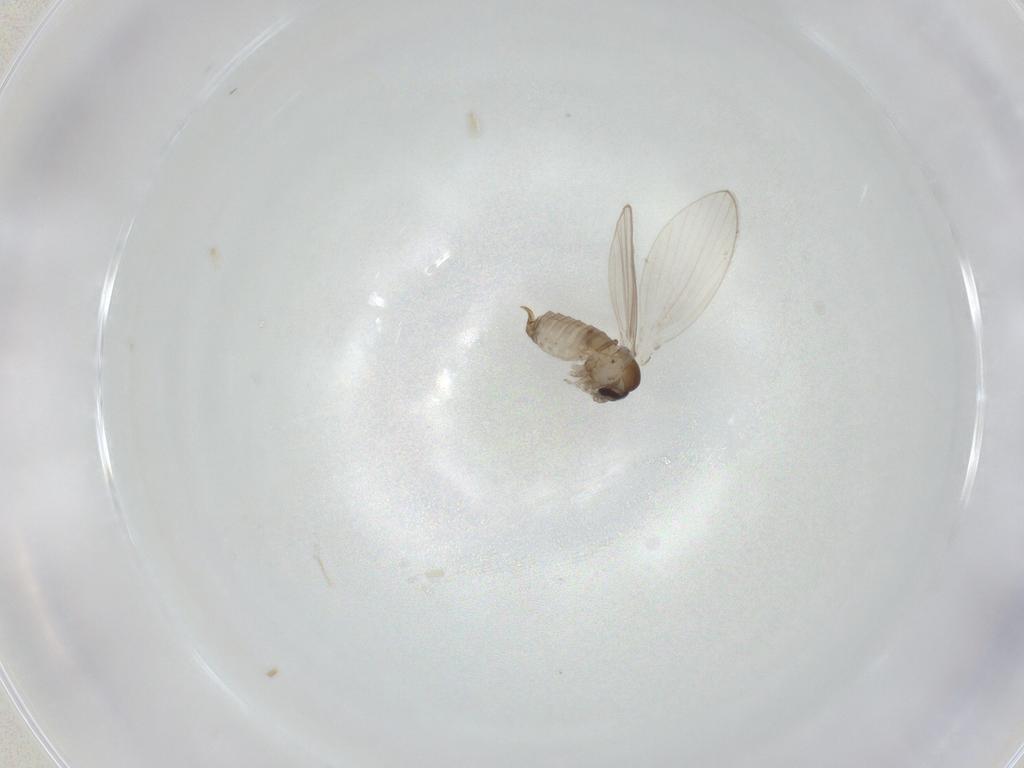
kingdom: Animalia
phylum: Arthropoda
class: Insecta
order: Diptera
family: Psychodidae
